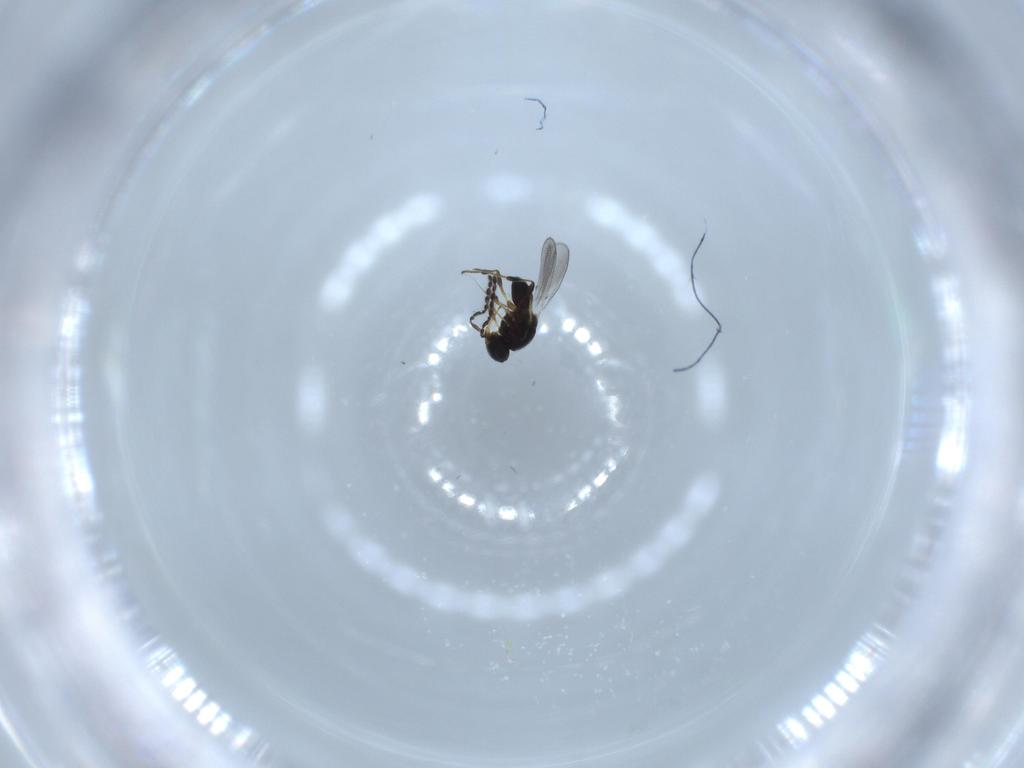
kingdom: Animalia
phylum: Arthropoda
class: Insecta
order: Hymenoptera
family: Platygastridae
